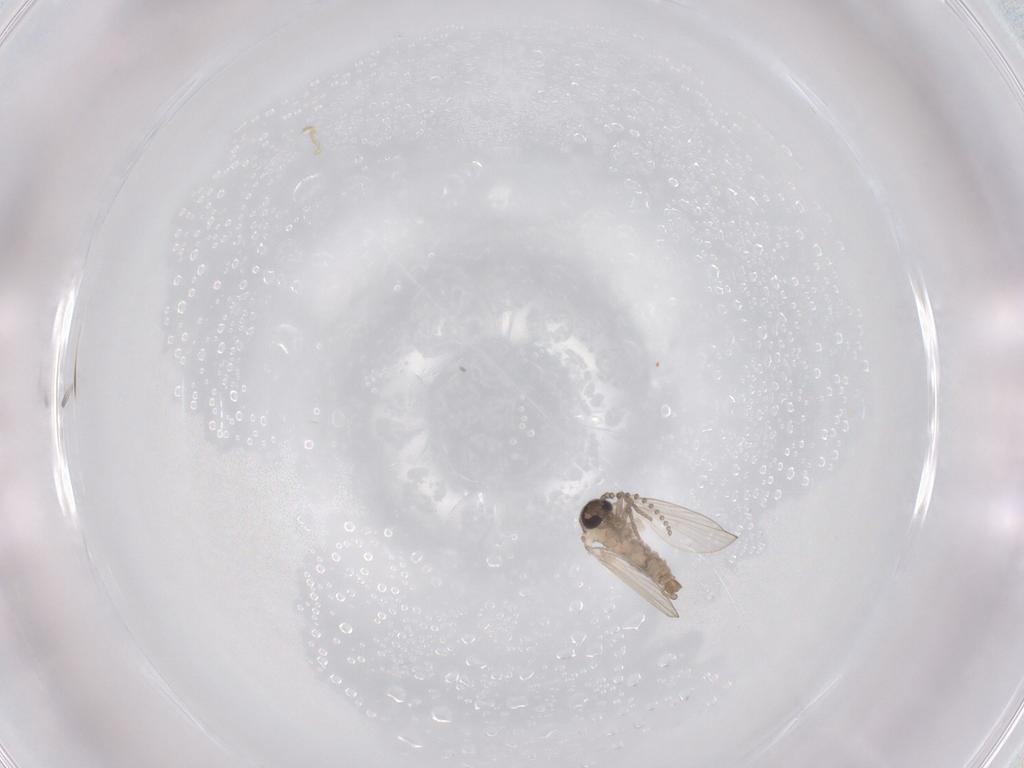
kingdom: Animalia
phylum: Arthropoda
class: Insecta
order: Diptera
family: Psychodidae
